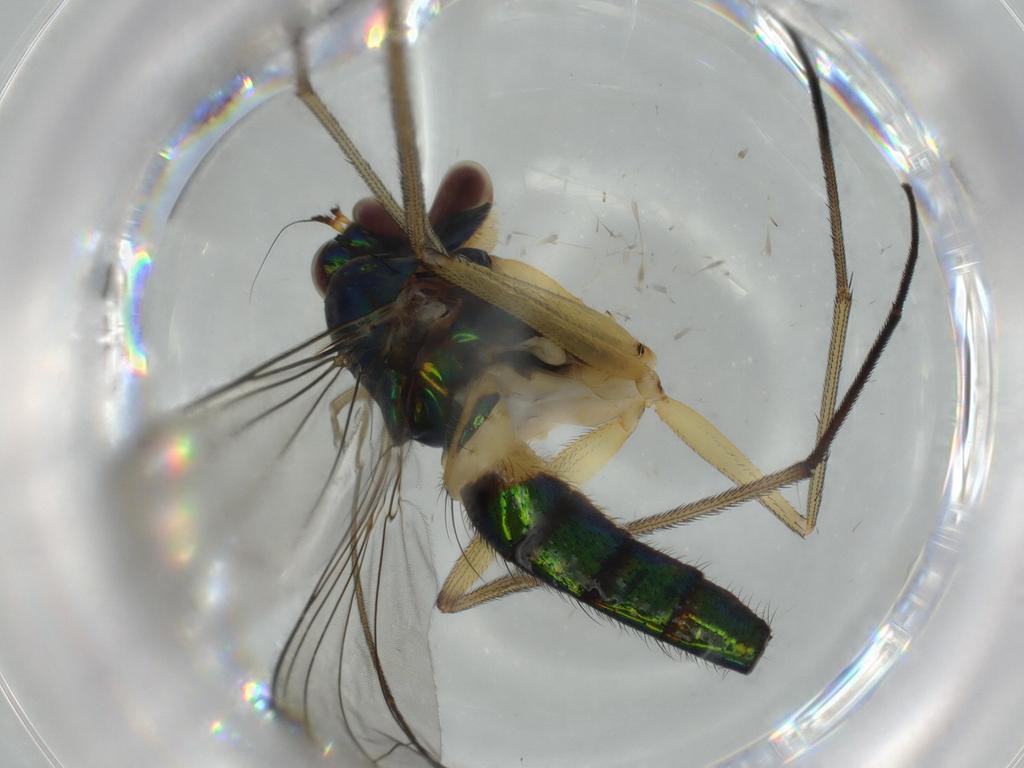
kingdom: Animalia
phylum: Arthropoda
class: Insecta
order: Diptera
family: Dolichopodidae
